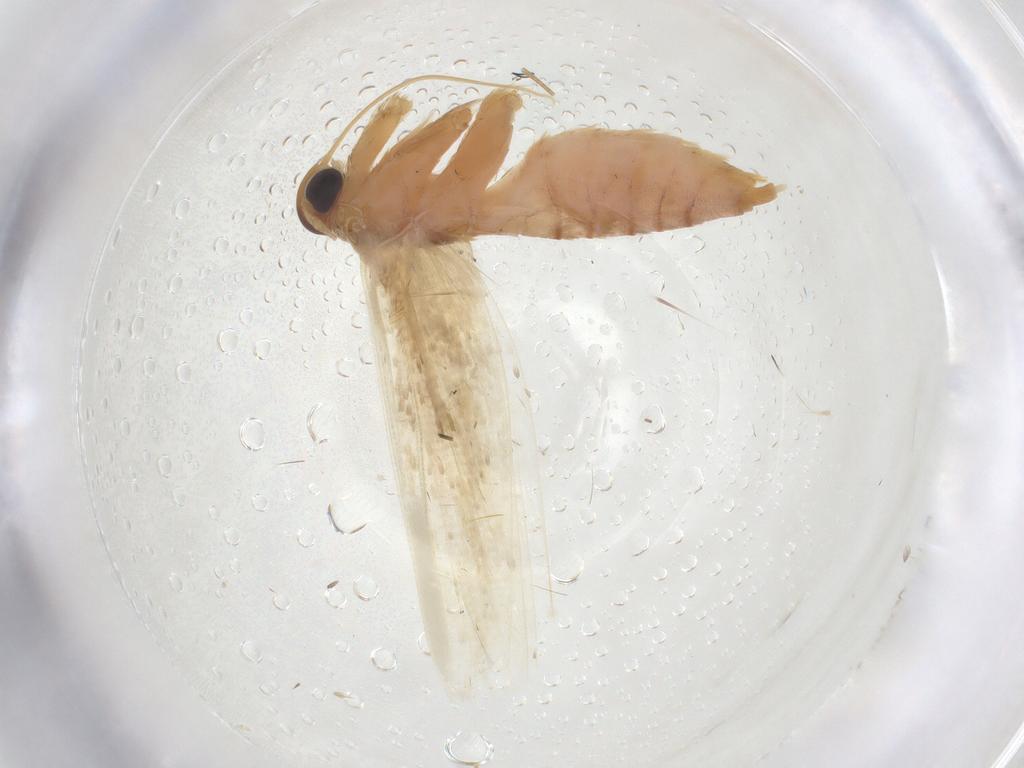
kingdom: Animalia
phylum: Arthropoda
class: Insecta
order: Lepidoptera
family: Blastobasidae
